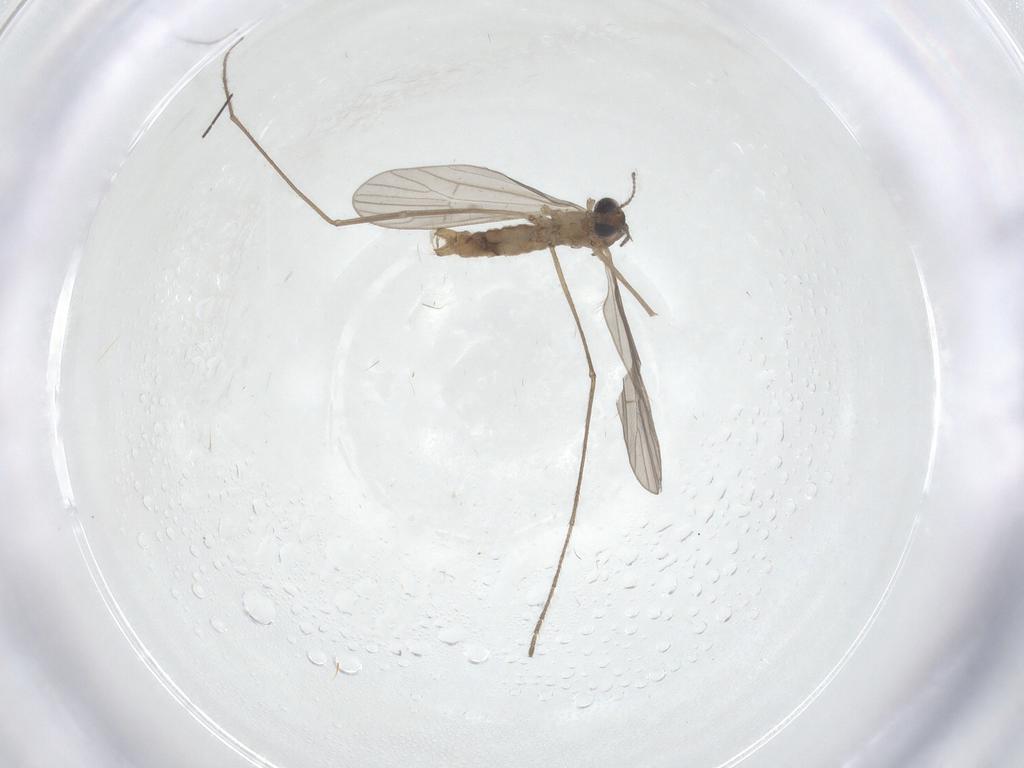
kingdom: Animalia
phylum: Arthropoda
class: Insecta
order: Diptera
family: Limoniidae
